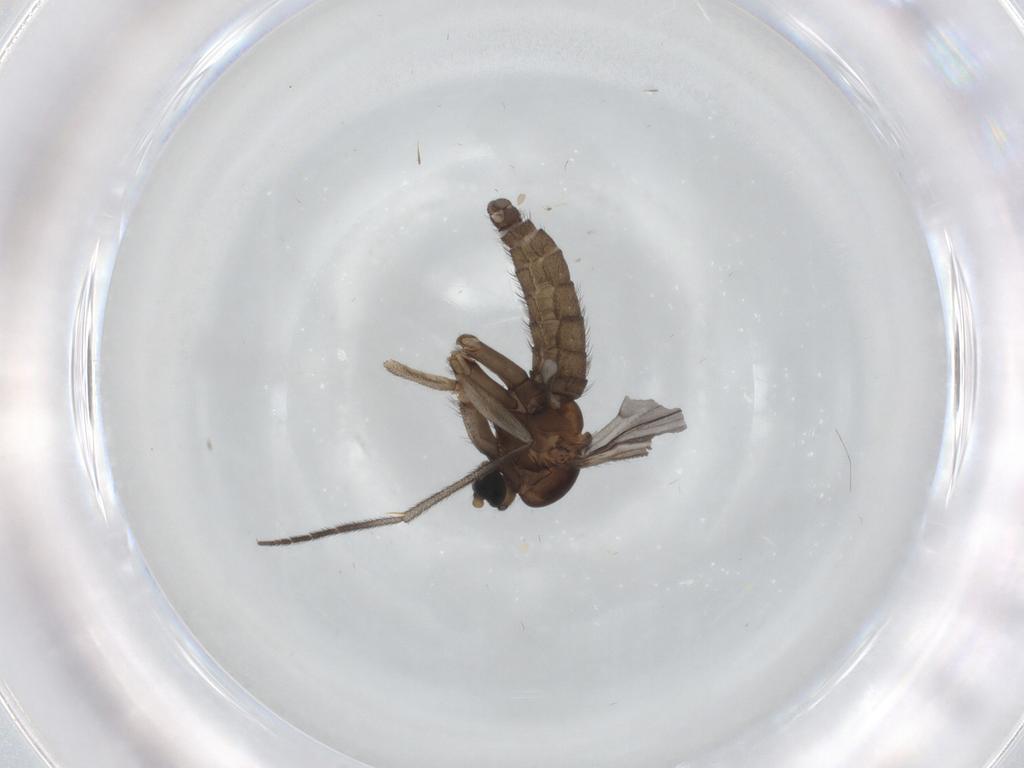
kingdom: Animalia
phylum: Arthropoda
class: Insecta
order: Diptera
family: Sciaridae
